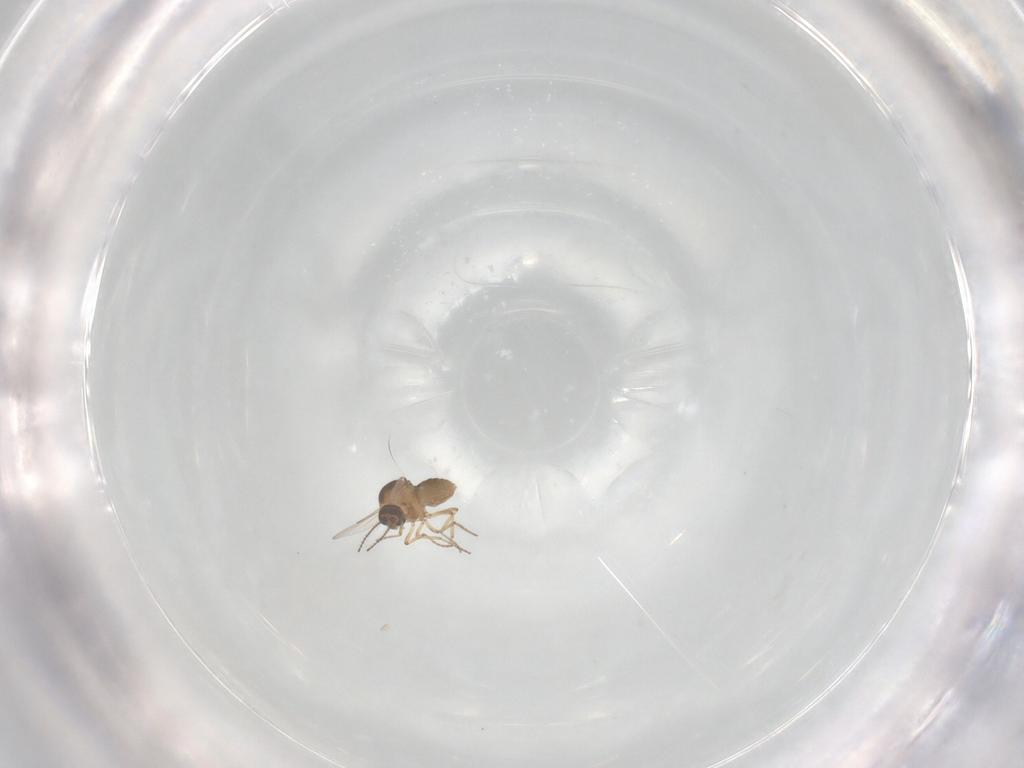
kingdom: Animalia
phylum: Arthropoda
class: Insecta
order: Diptera
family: Ceratopogonidae
